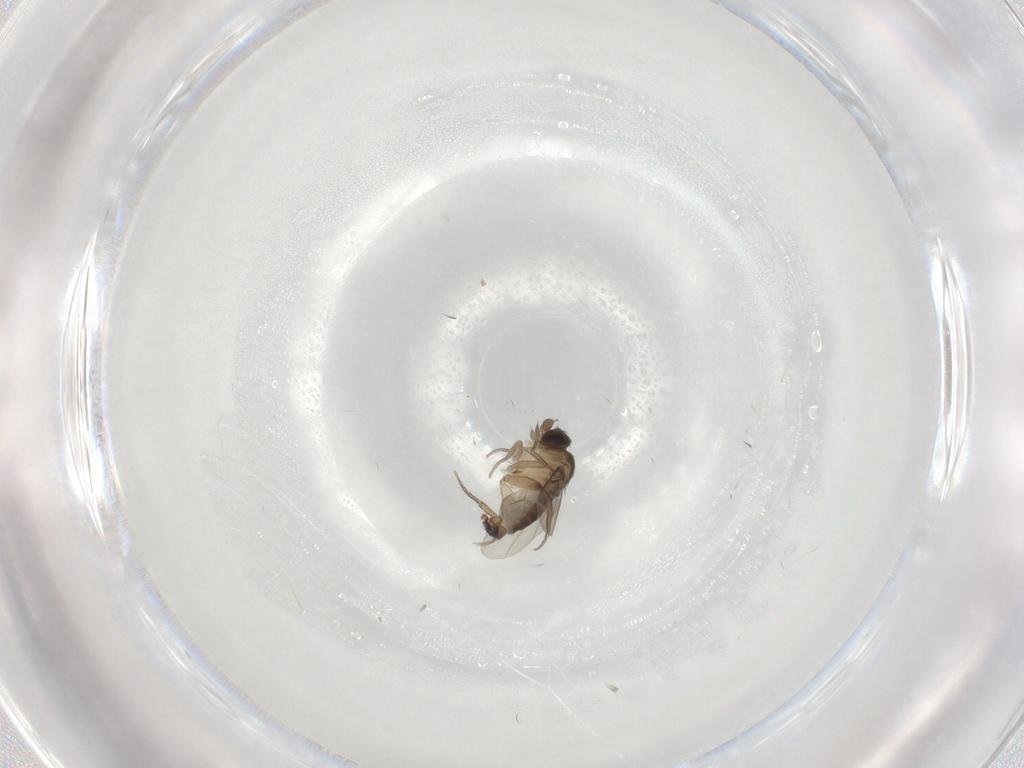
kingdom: Animalia
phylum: Arthropoda
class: Insecta
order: Diptera
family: Phoridae
